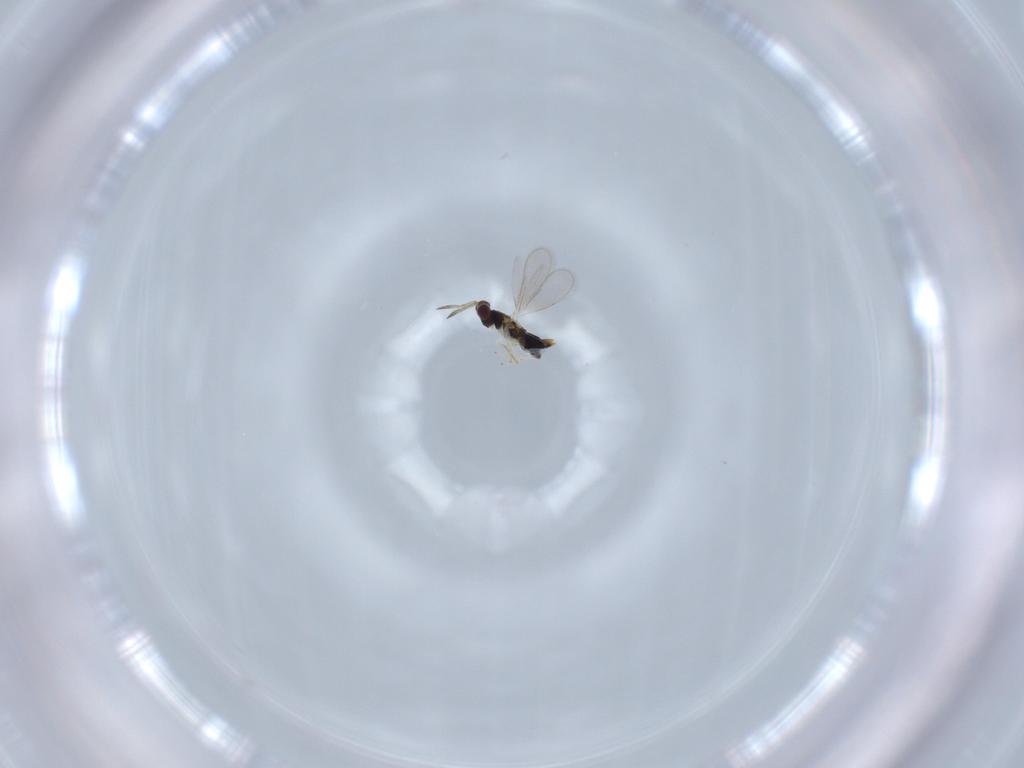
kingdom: Animalia
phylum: Arthropoda
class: Insecta
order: Hymenoptera
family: Aphelinidae
